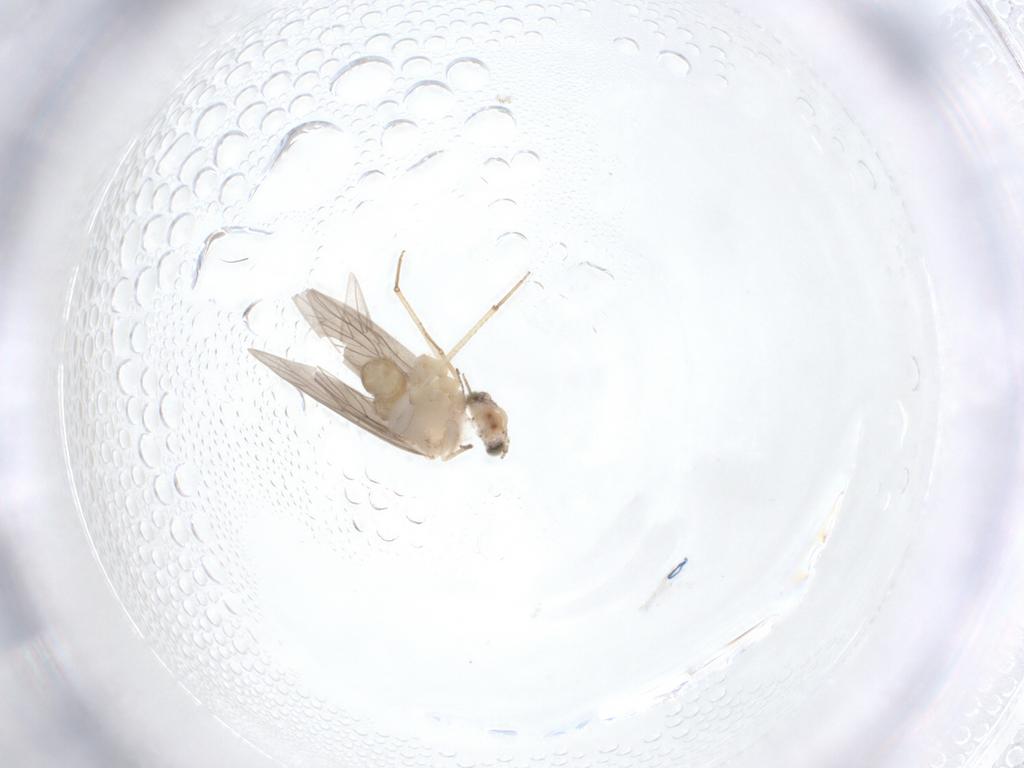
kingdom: Animalia
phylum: Arthropoda
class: Insecta
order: Psocodea
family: Lepidopsocidae
